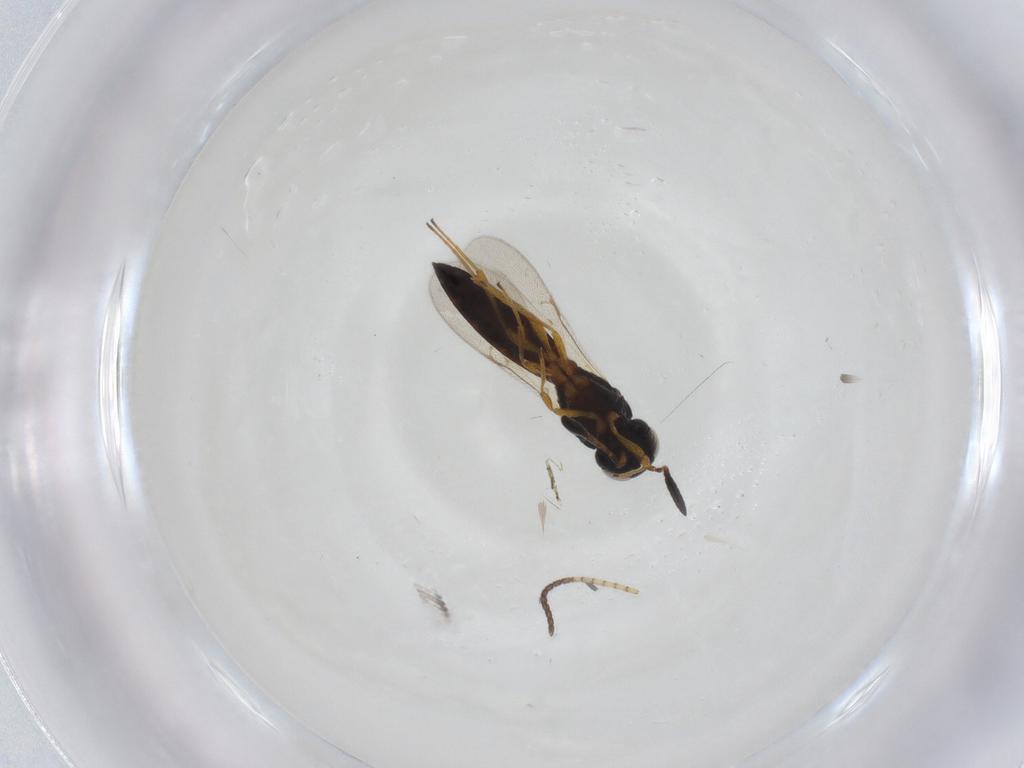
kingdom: Animalia
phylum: Arthropoda
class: Insecta
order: Hymenoptera
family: Ichneumonidae
